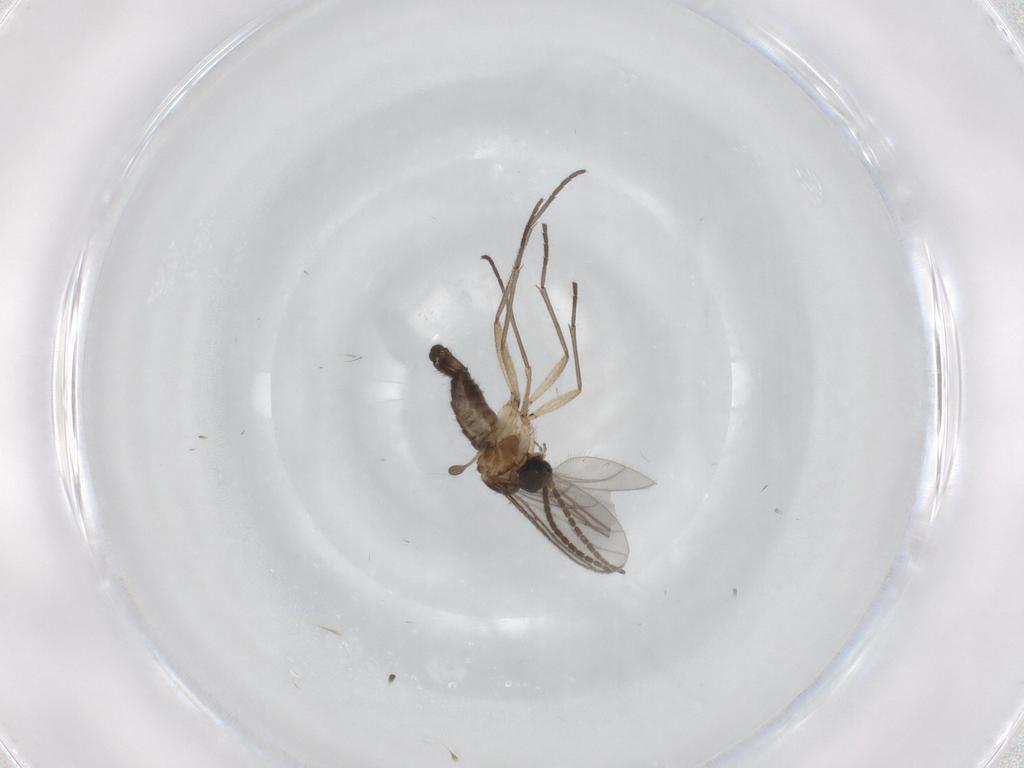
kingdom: Animalia
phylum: Arthropoda
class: Insecta
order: Diptera
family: Sciaridae
